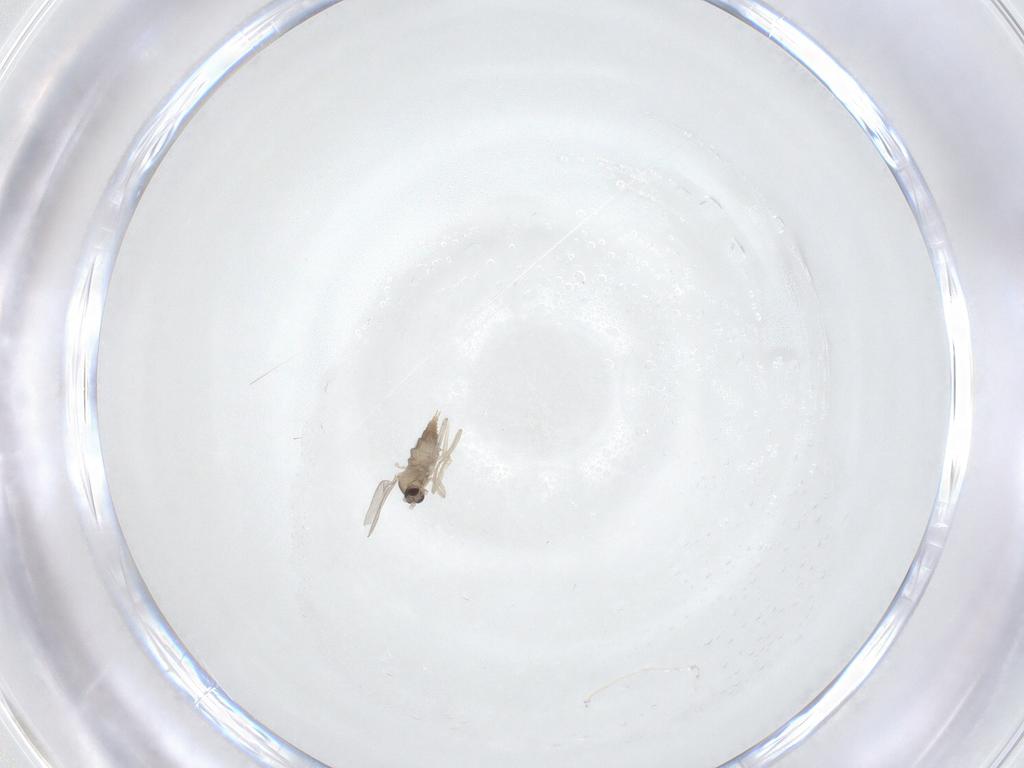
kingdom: Animalia
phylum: Arthropoda
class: Insecta
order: Diptera
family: Cecidomyiidae
